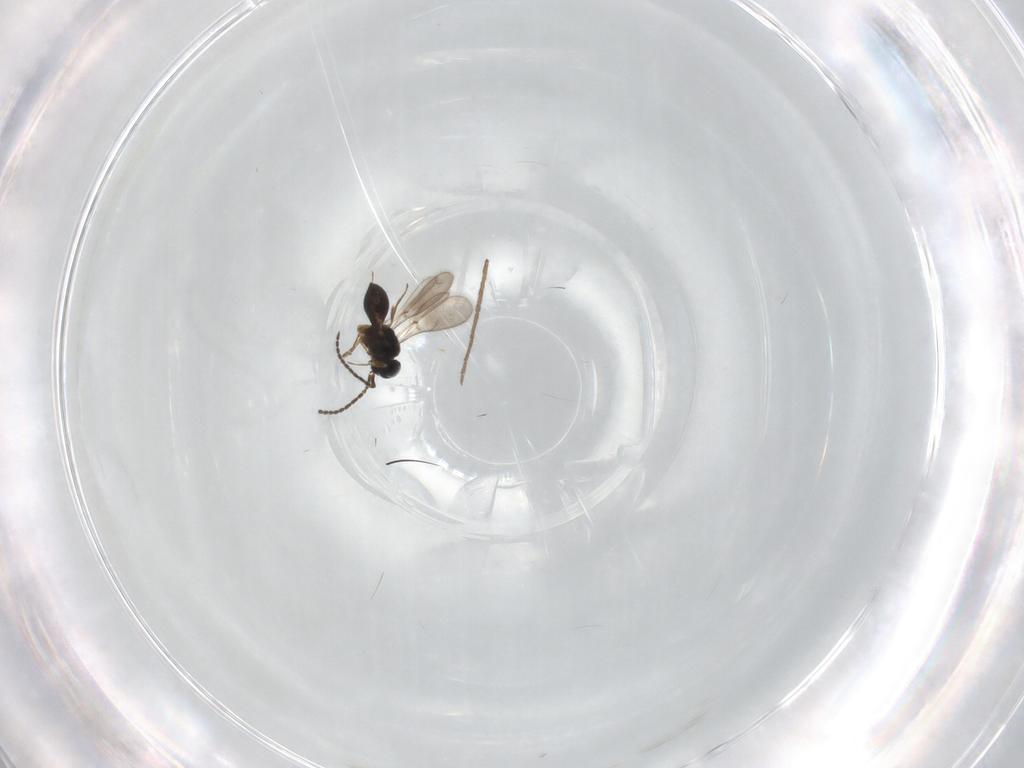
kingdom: Animalia
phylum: Arthropoda
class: Insecta
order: Hymenoptera
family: Scelionidae
